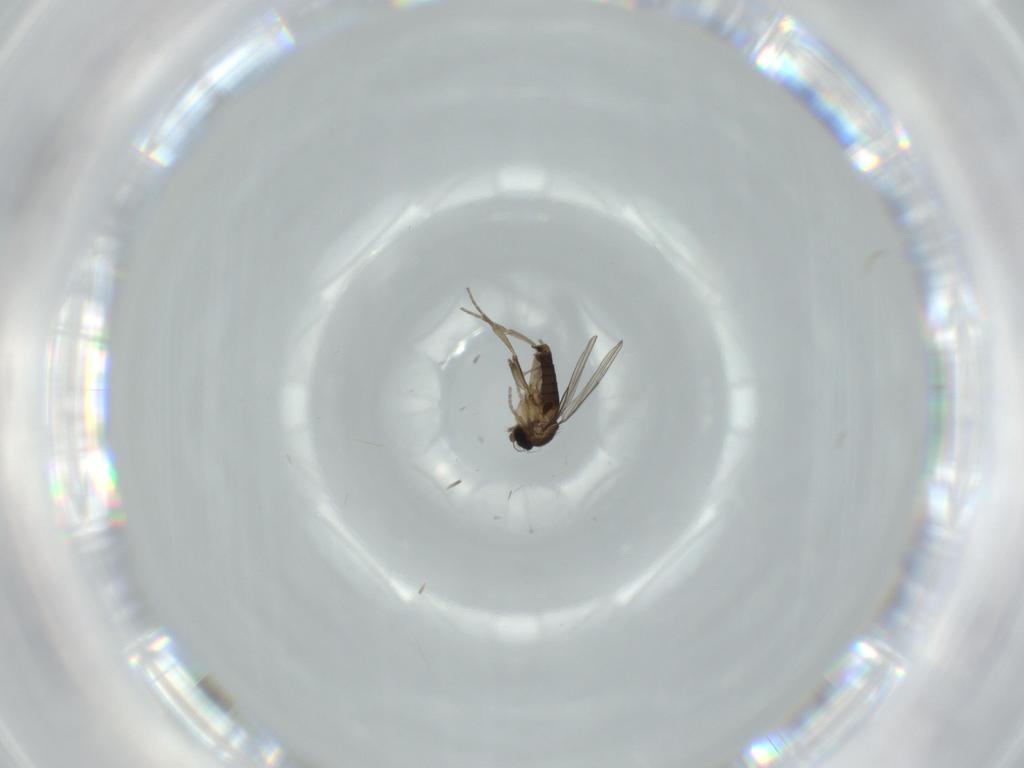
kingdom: Animalia
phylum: Arthropoda
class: Insecta
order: Diptera
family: Phoridae
